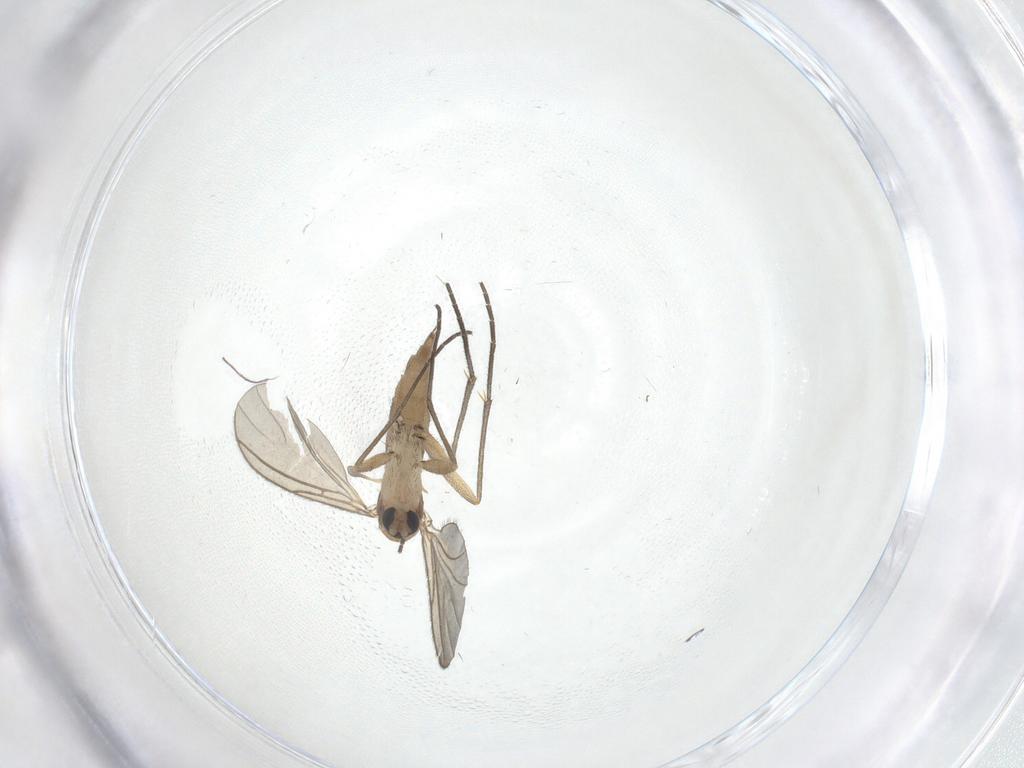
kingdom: Animalia
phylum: Arthropoda
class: Insecta
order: Diptera
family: Sciaridae
